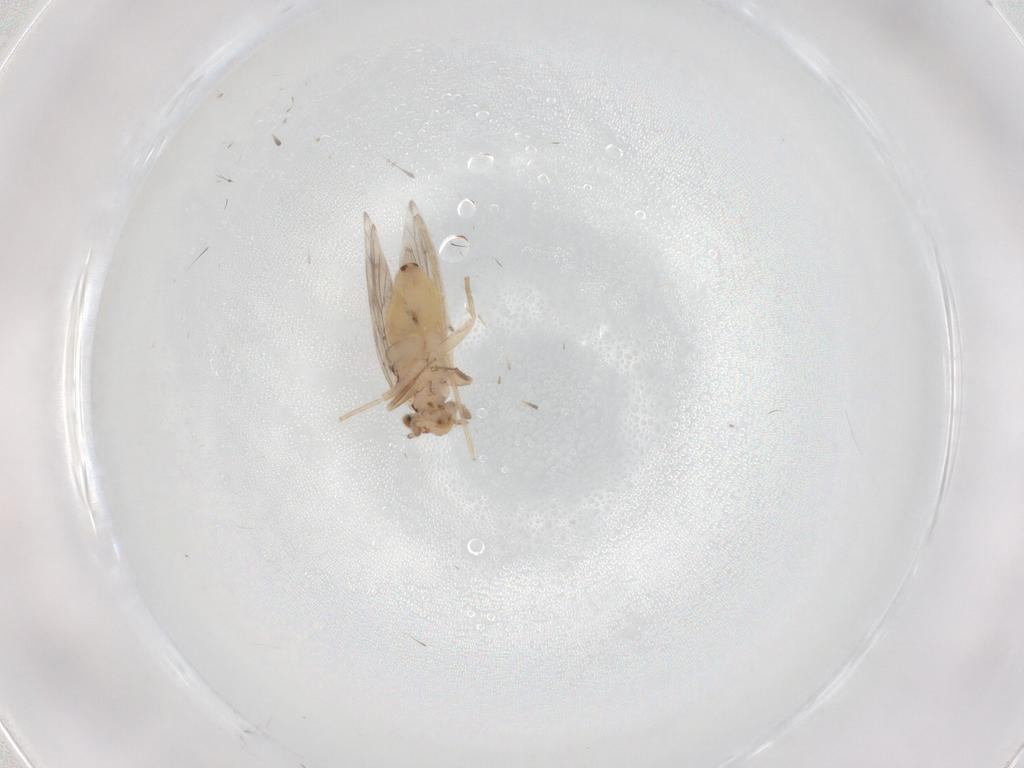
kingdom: Animalia
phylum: Arthropoda
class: Insecta
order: Psocodea
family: Lepidopsocidae
